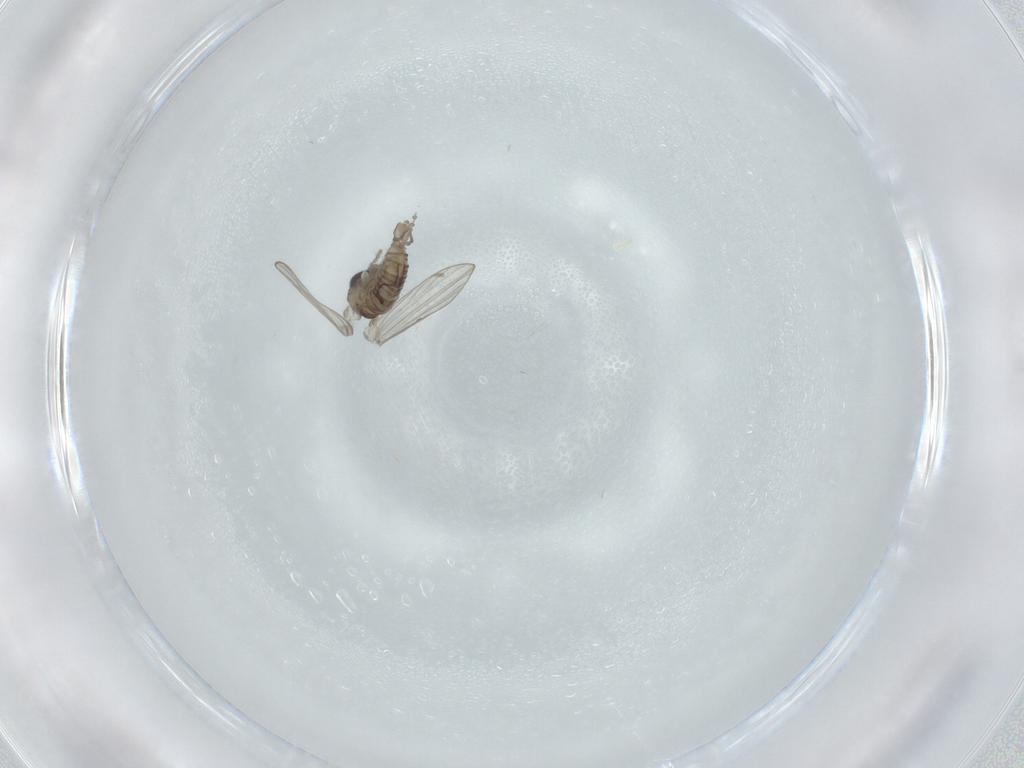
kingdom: Animalia
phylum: Arthropoda
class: Insecta
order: Diptera
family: Psychodidae
